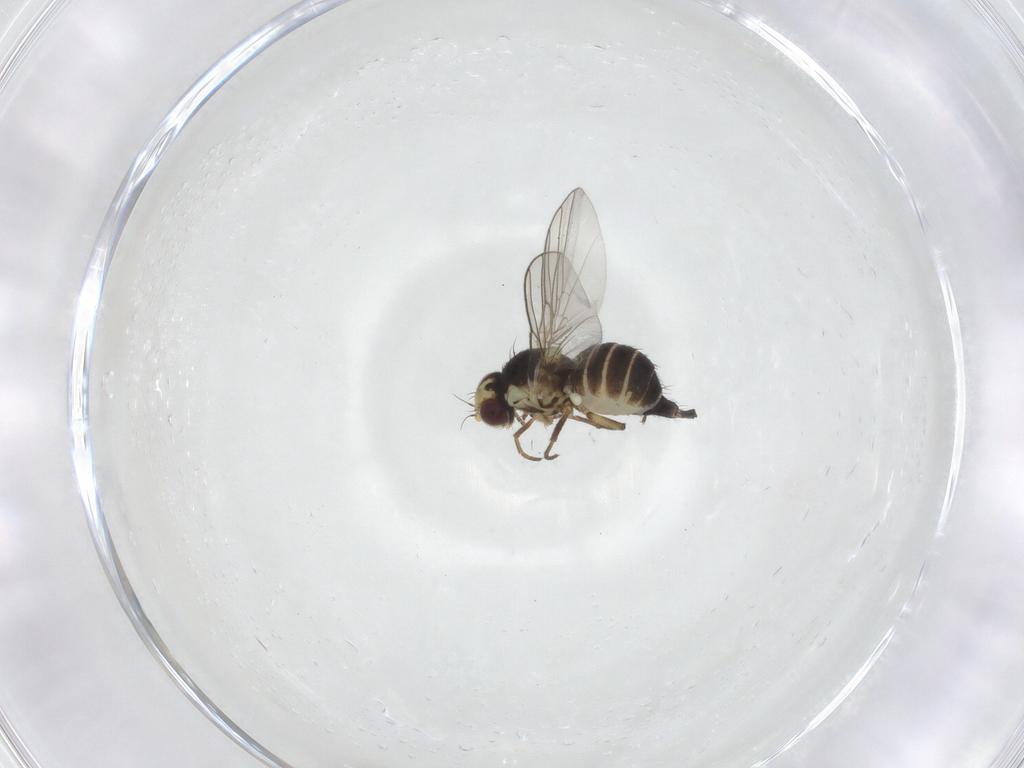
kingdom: Animalia
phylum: Arthropoda
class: Insecta
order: Diptera
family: Agromyzidae
